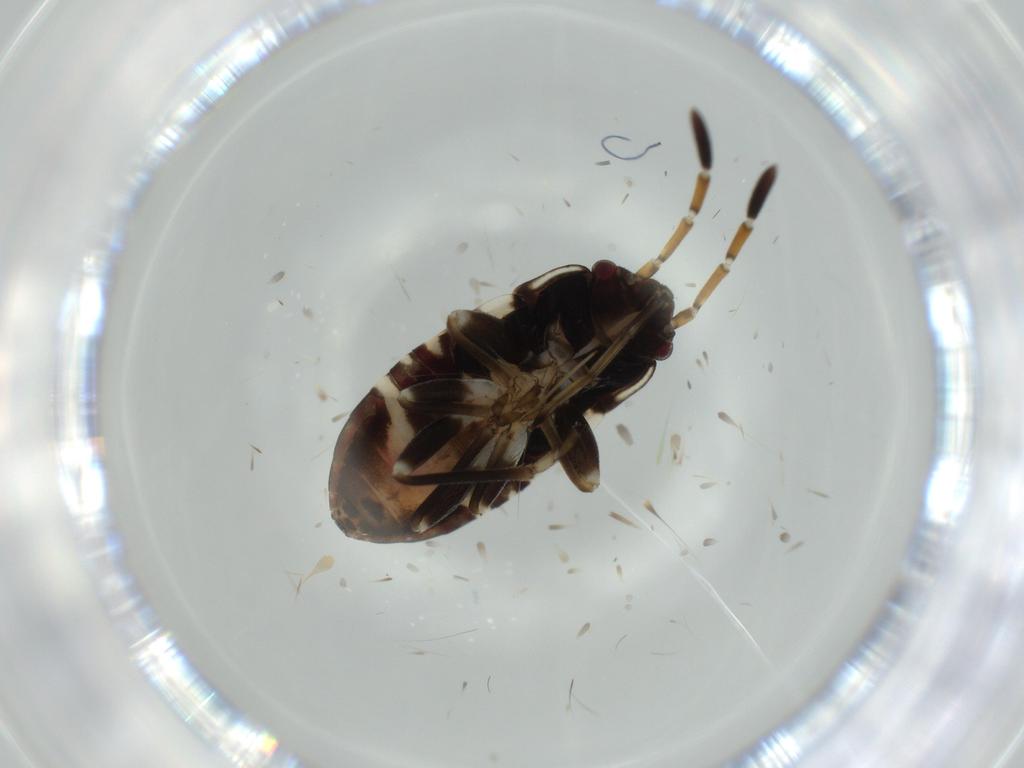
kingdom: Animalia
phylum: Arthropoda
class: Insecta
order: Hemiptera
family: Rhyparochromidae
